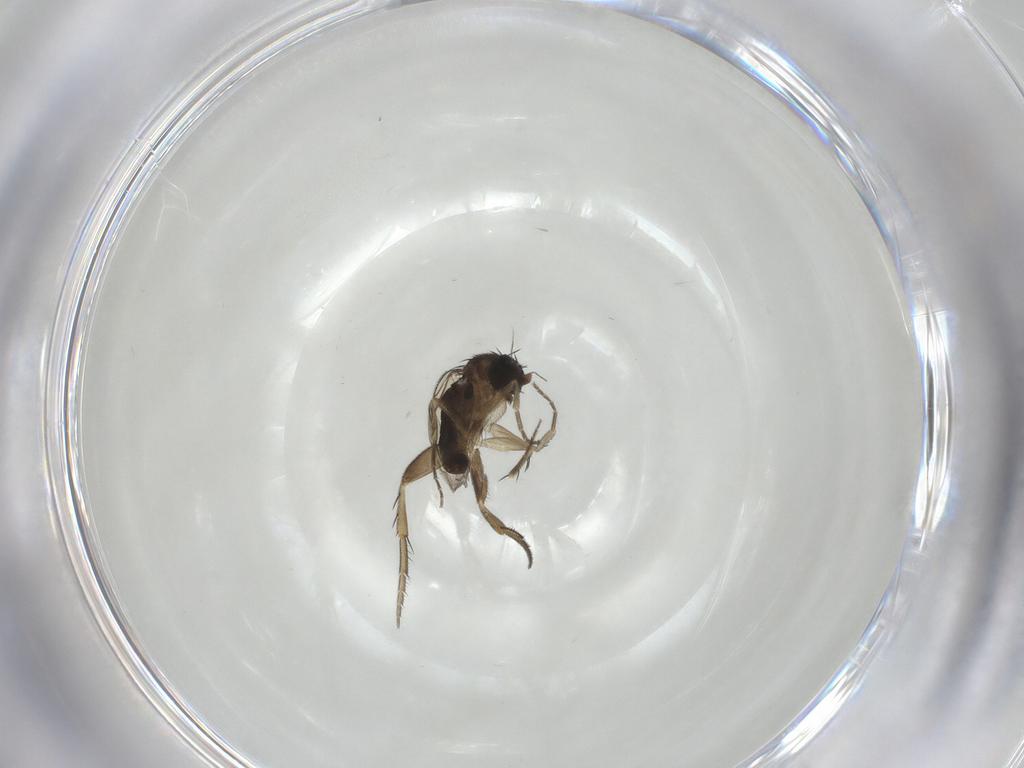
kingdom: Animalia
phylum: Arthropoda
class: Insecta
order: Diptera
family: Phoridae
